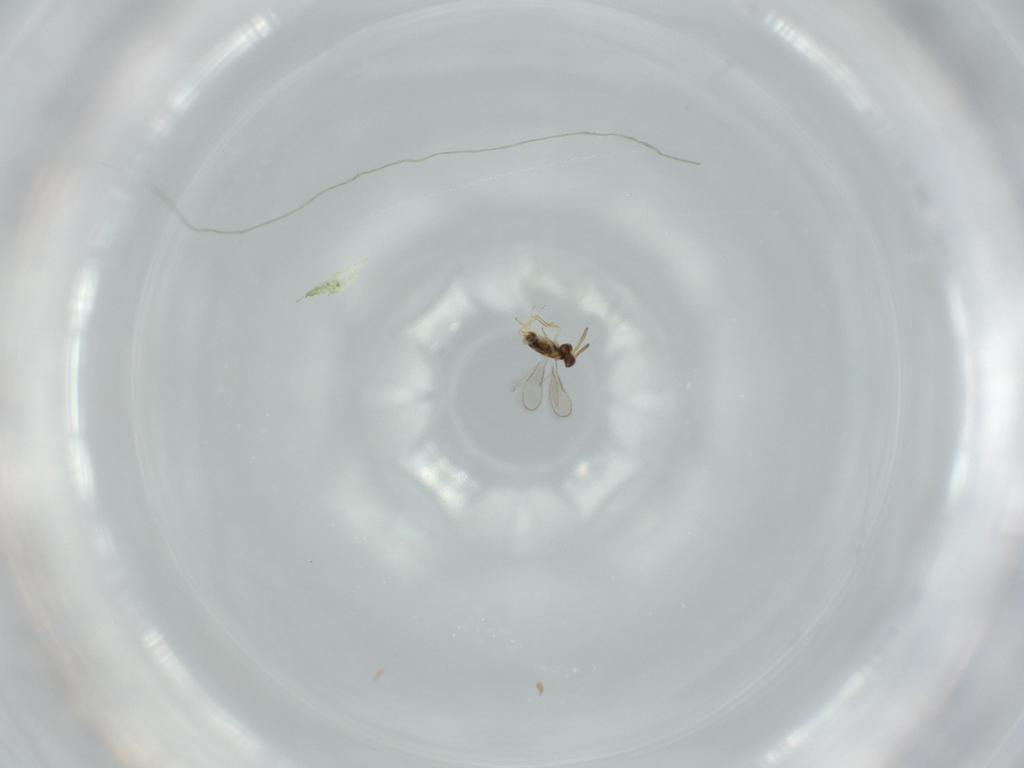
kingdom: Animalia
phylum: Arthropoda
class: Insecta
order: Hymenoptera
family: Aphelinidae
